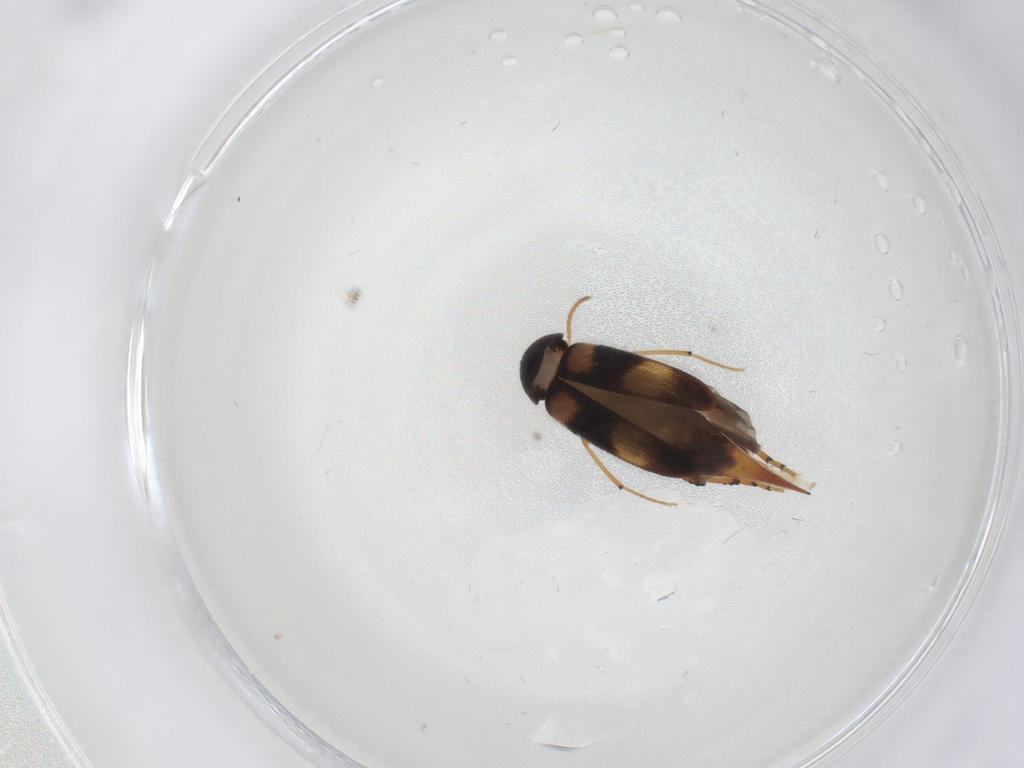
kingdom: Animalia
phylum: Arthropoda
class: Insecta
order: Coleoptera
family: Mordellidae
